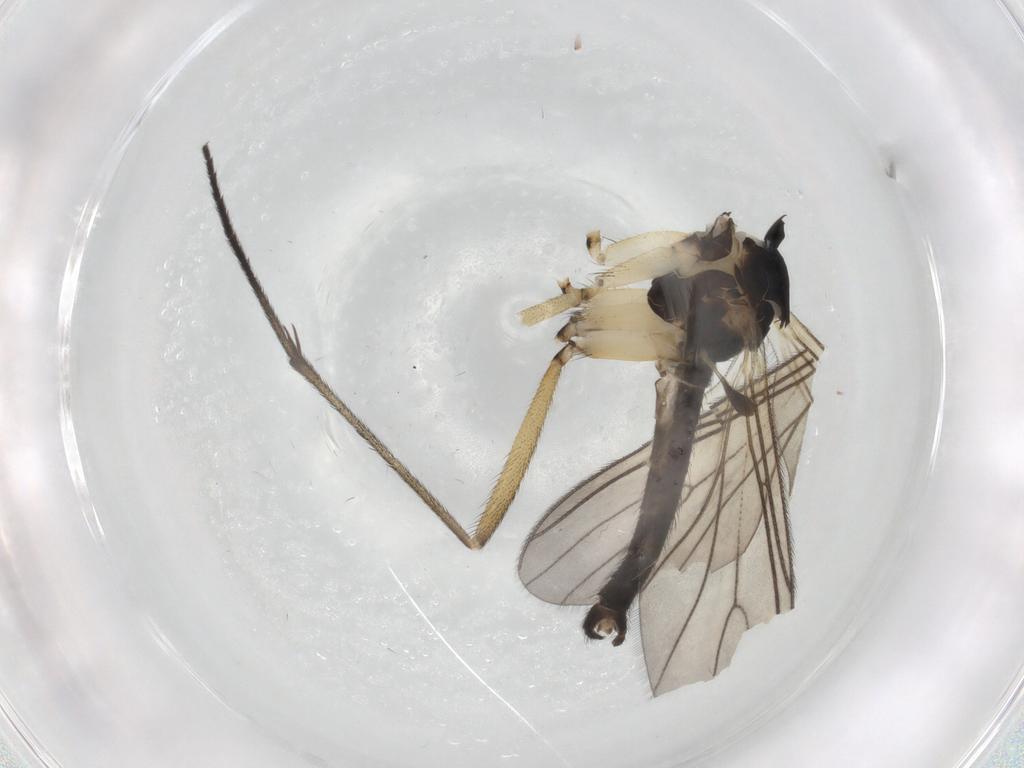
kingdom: Animalia
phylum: Arthropoda
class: Insecta
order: Diptera
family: Sciaridae
